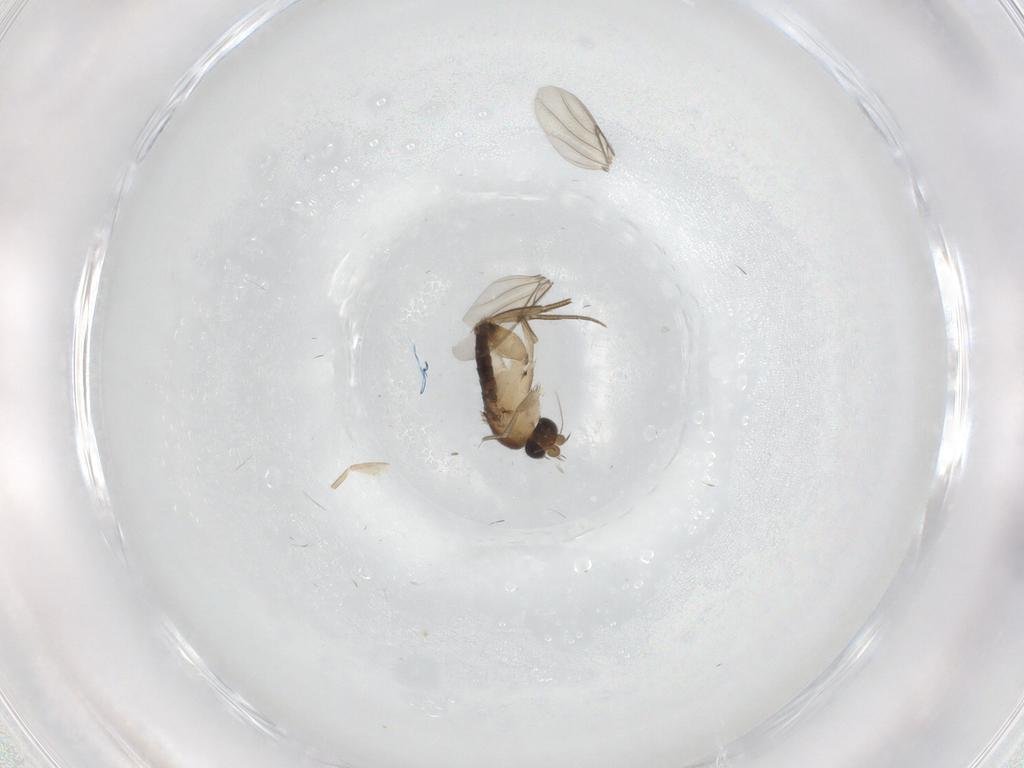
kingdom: Animalia
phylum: Arthropoda
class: Insecta
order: Diptera
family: Phoridae
